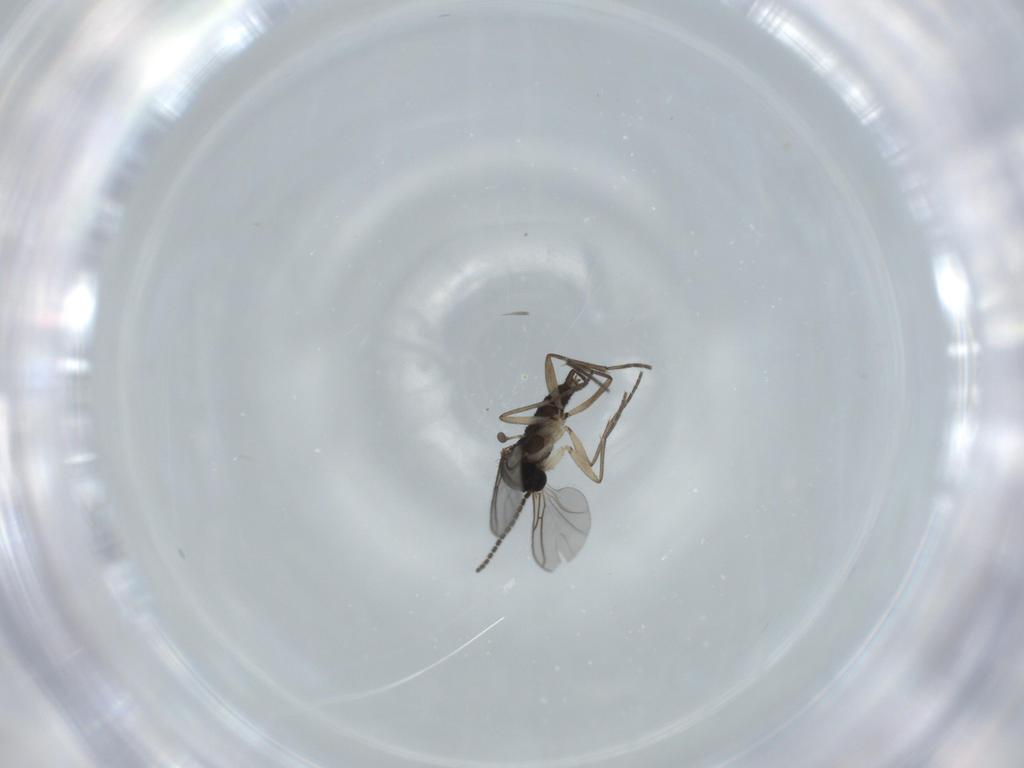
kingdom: Animalia
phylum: Arthropoda
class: Insecta
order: Diptera
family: Sciaridae
